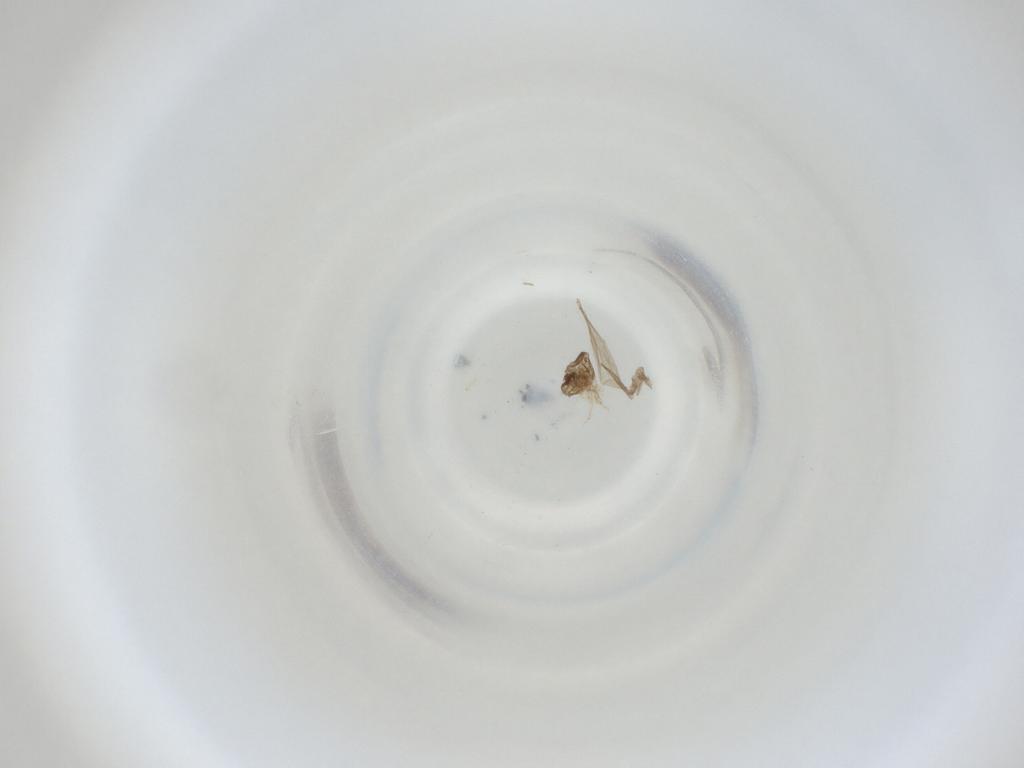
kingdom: Animalia
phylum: Arthropoda
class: Insecta
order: Diptera
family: Cecidomyiidae
